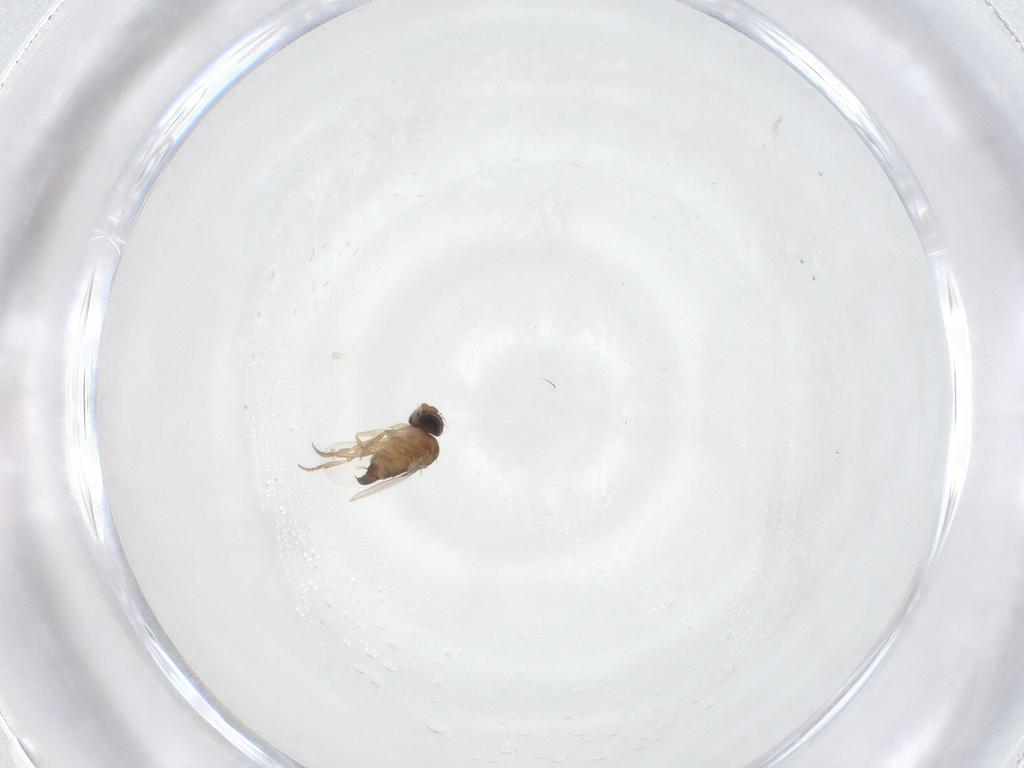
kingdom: Animalia
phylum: Arthropoda
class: Insecta
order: Diptera
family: Phoridae
